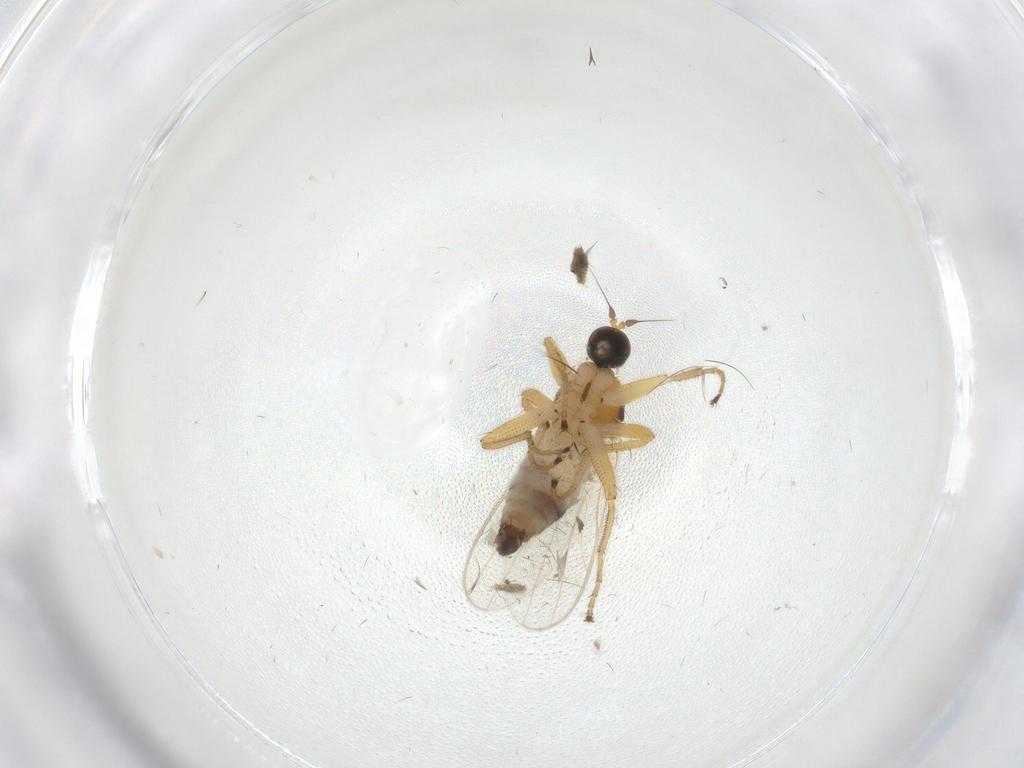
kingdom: Animalia
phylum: Arthropoda
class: Insecta
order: Diptera
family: Hybotidae
